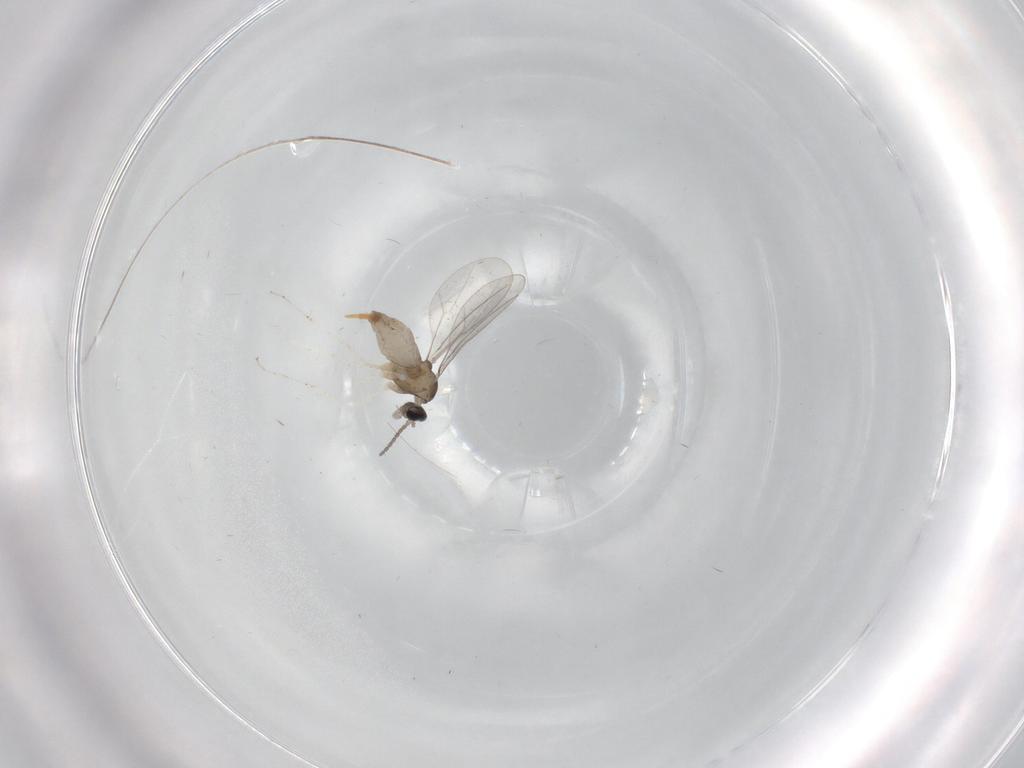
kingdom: Animalia
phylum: Arthropoda
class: Insecta
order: Diptera
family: Cecidomyiidae
